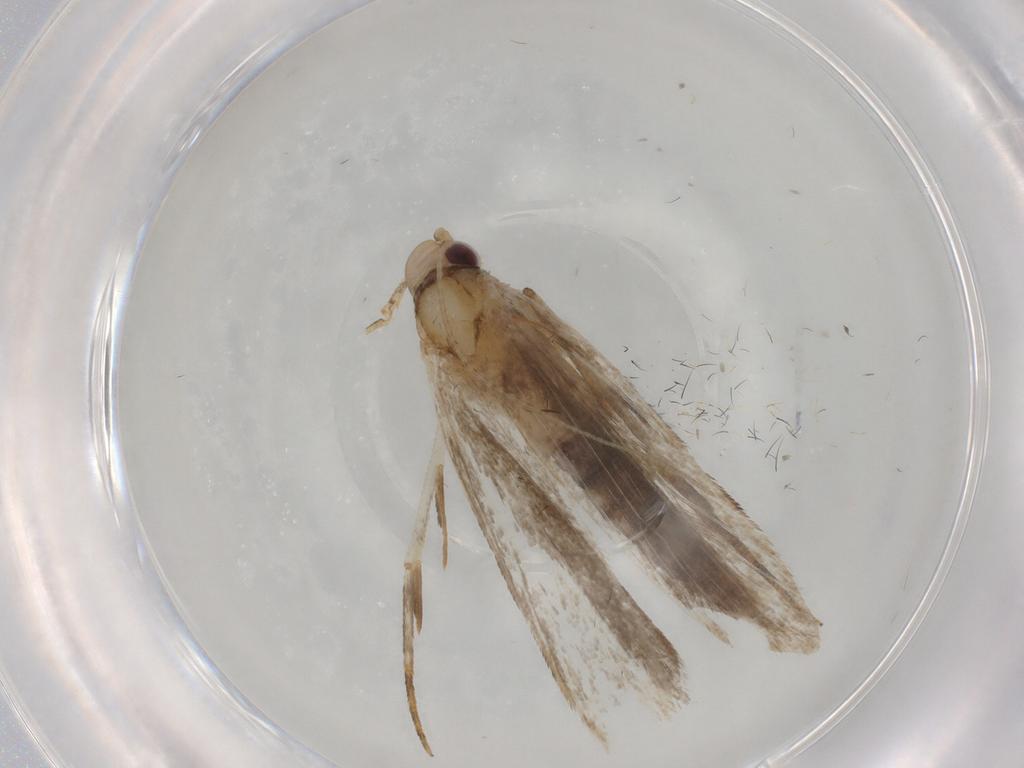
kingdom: Animalia
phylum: Arthropoda
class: Insecta
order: Lepidoptera
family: Gelechiidae
